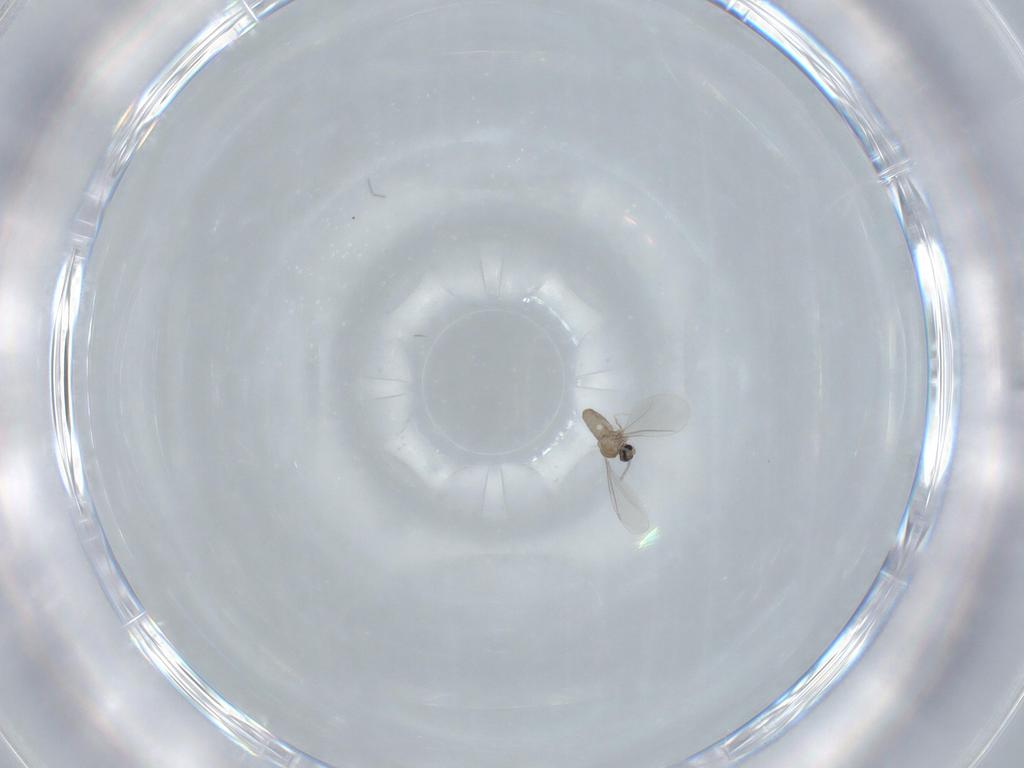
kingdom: Animalia
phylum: Arthropoda
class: Insecta
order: Diptera
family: Cecidomyiidae
